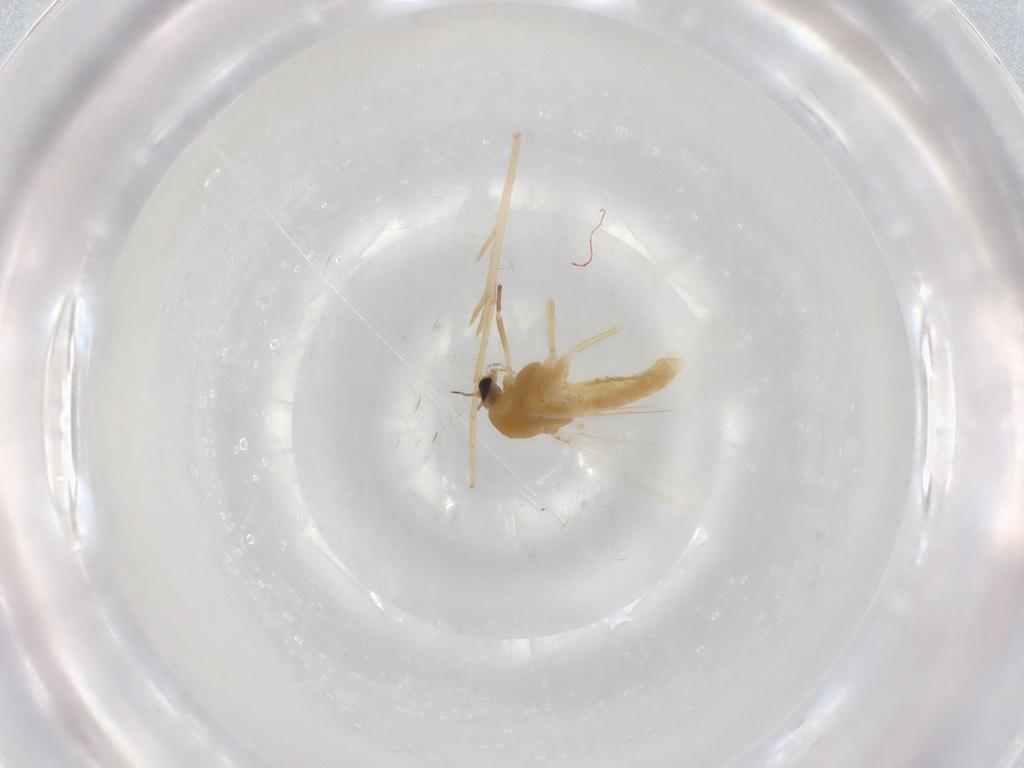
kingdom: Animalia
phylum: Arthropoda
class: Insecta
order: Diptera
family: Chironomidae
